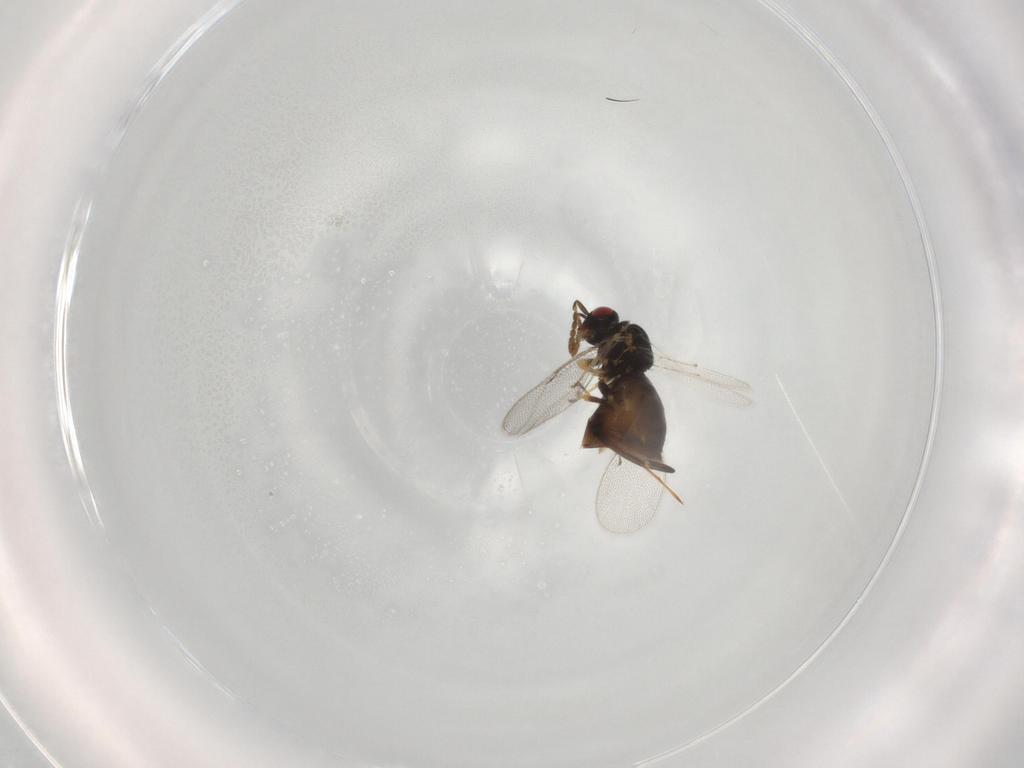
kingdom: Animalia
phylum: Arthropoda
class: Insecta
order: Hymenoptera
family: Eulophidae
